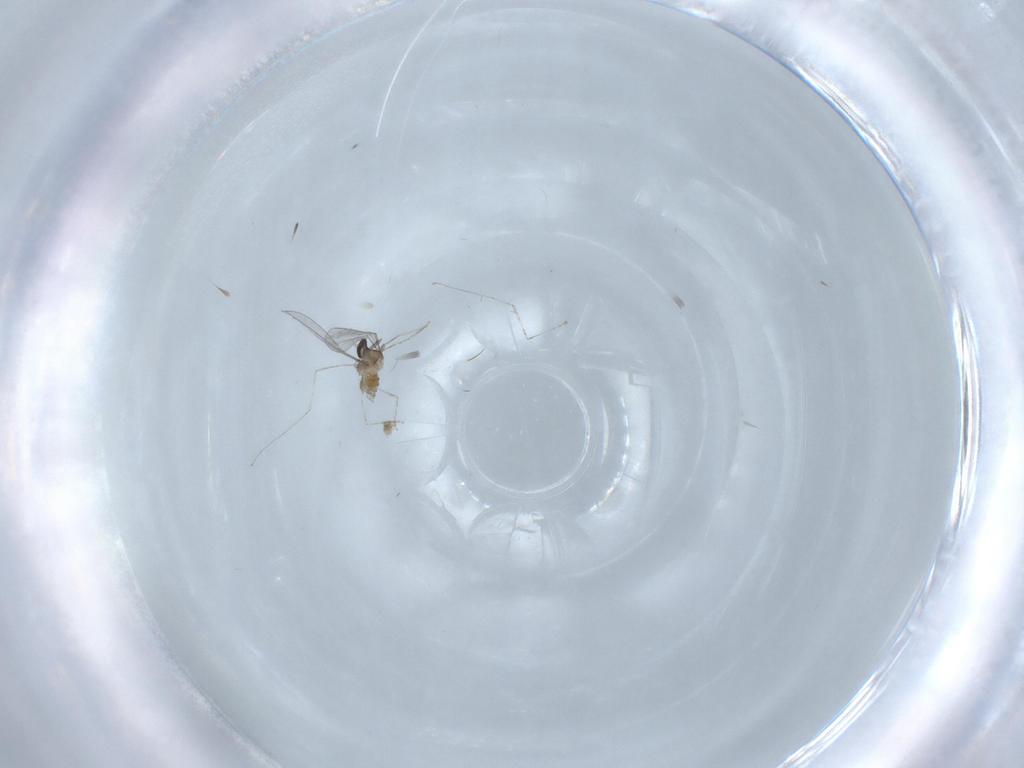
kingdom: Animalia
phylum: Arthropoda
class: Insecta
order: Diptera
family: Cecidomyiidae
